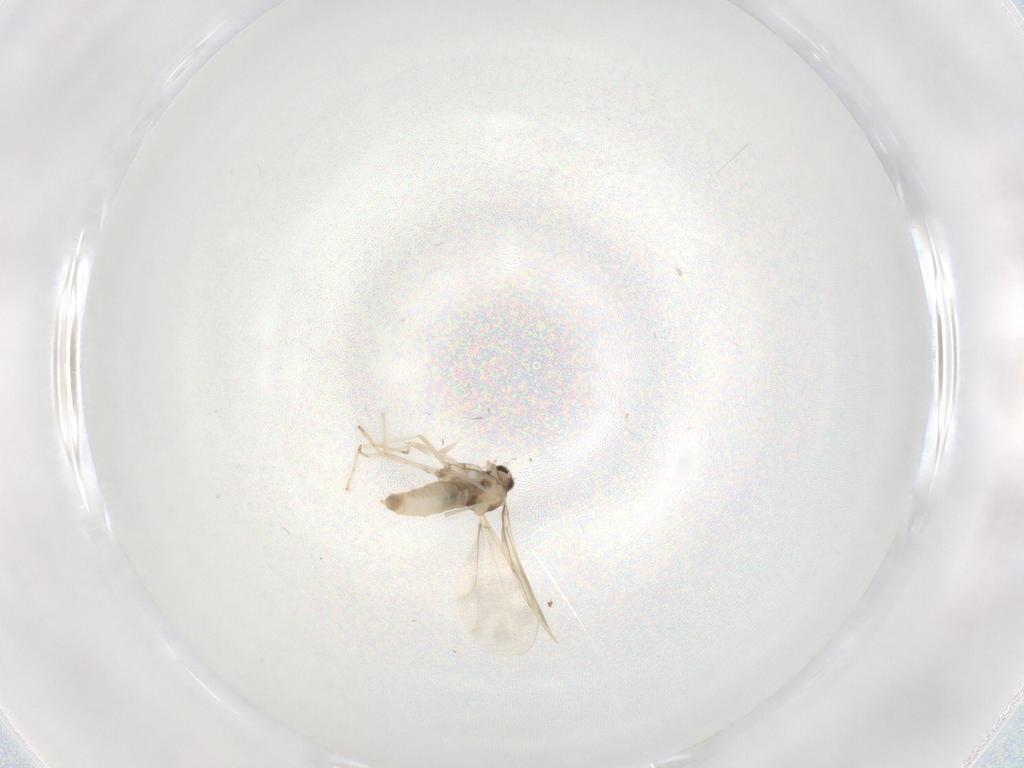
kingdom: Animalia
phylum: Arthropoda
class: Insecta
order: Diptera
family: Cecidomyiidae
